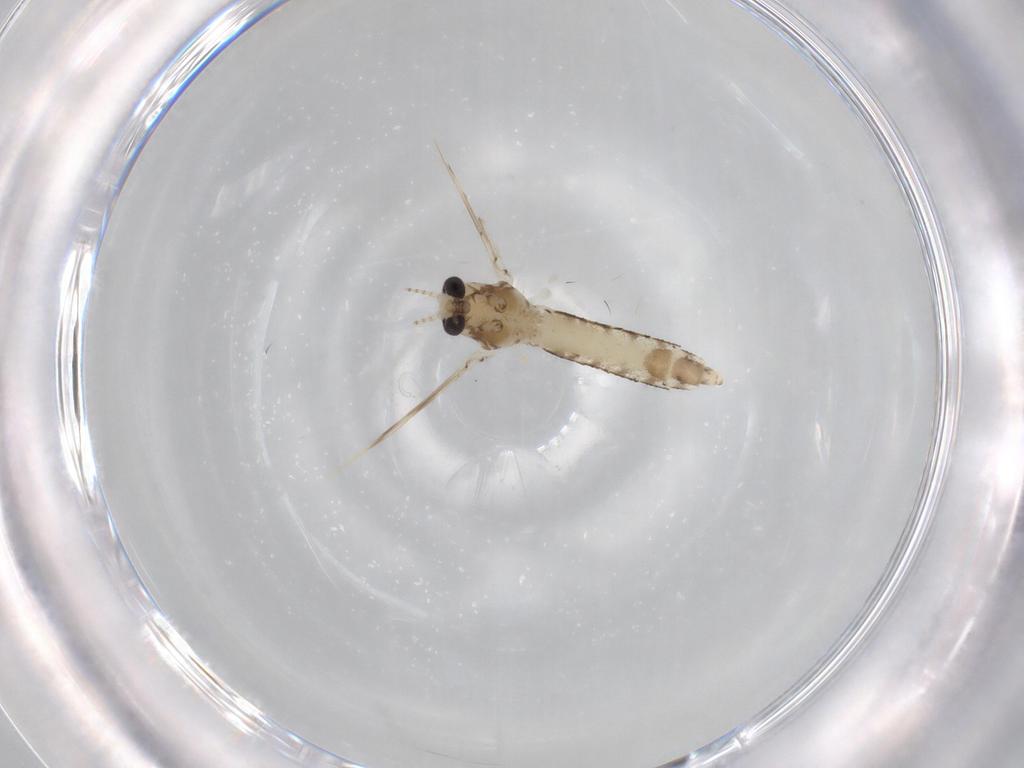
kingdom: Animalia
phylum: Arthropoda
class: Insecta
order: Diptera
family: Corethrellidae
